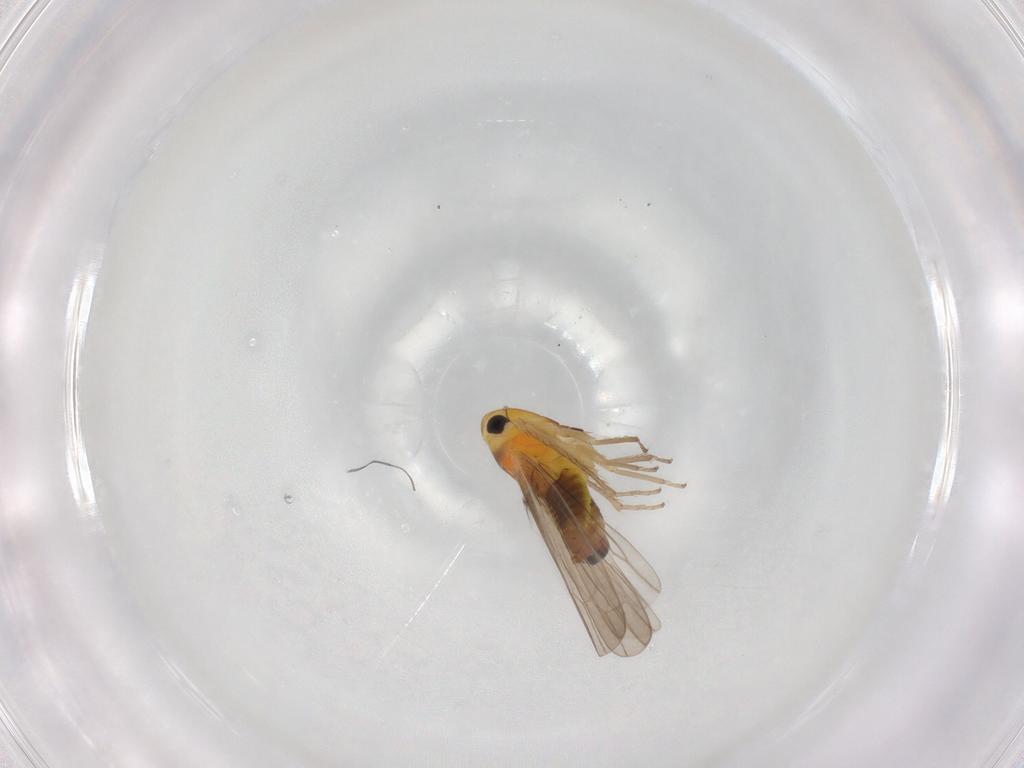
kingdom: Animalia
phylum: Arthropoda
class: Insecta
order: Hemiptera
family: Cicadellidae
